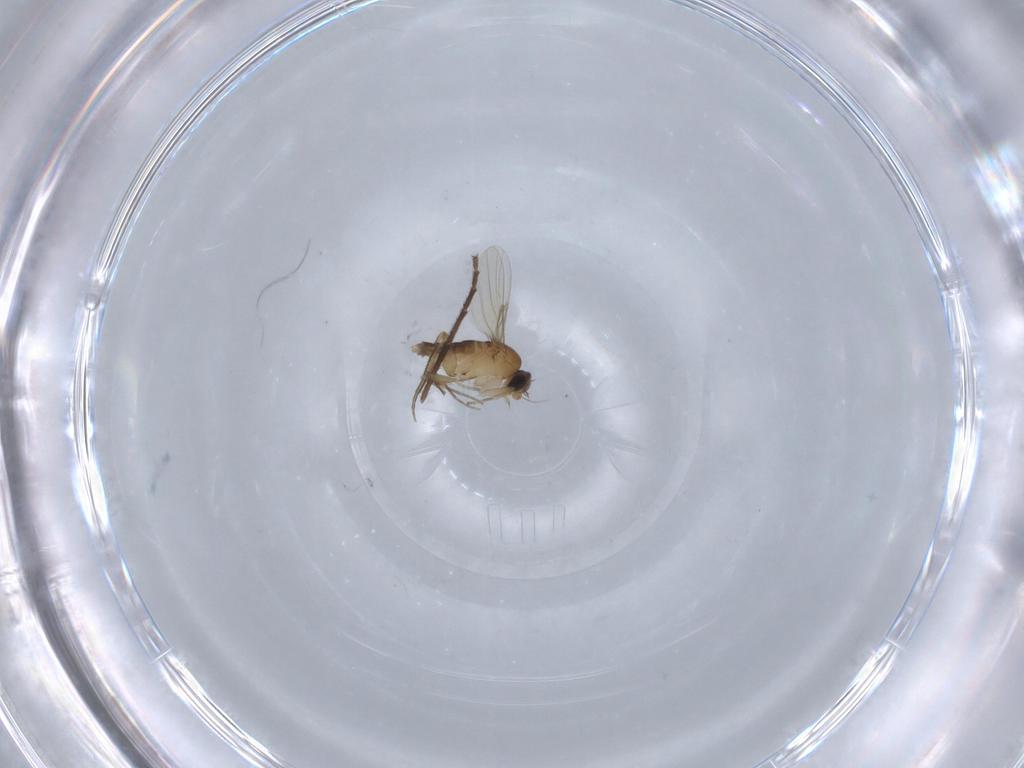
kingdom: Animalia
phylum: Arthropoda
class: Insecta
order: Diptera
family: Chironomidae
